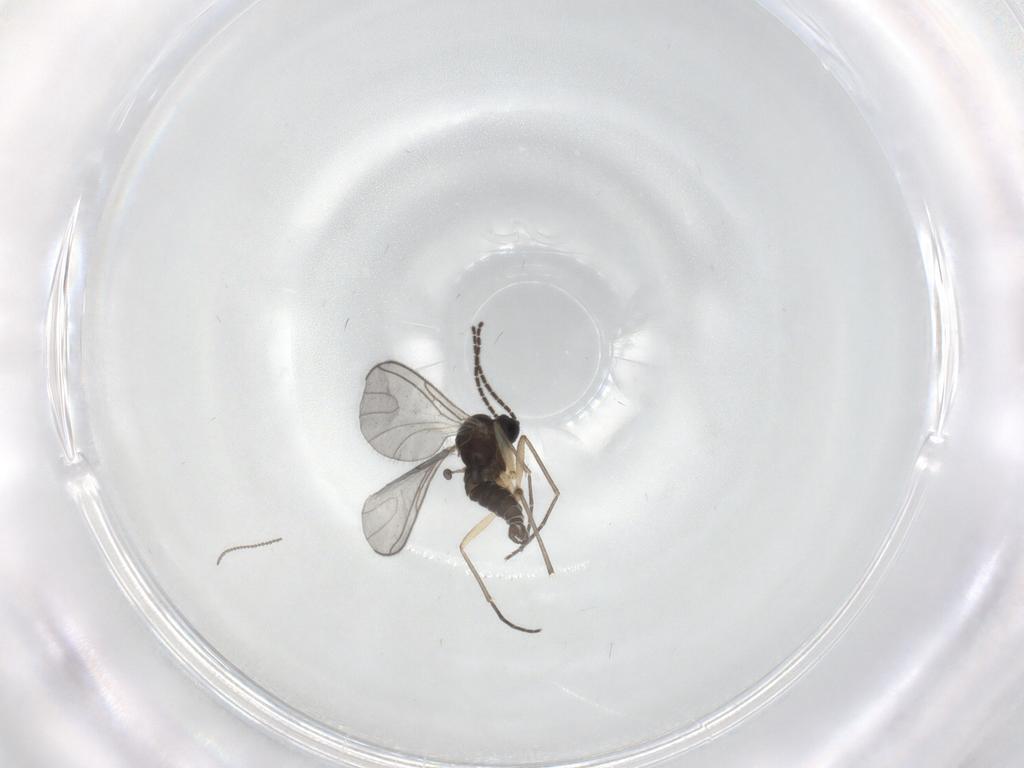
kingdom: Animalia
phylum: Arthropoda
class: Insecta
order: Diptera
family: Sciaridae
